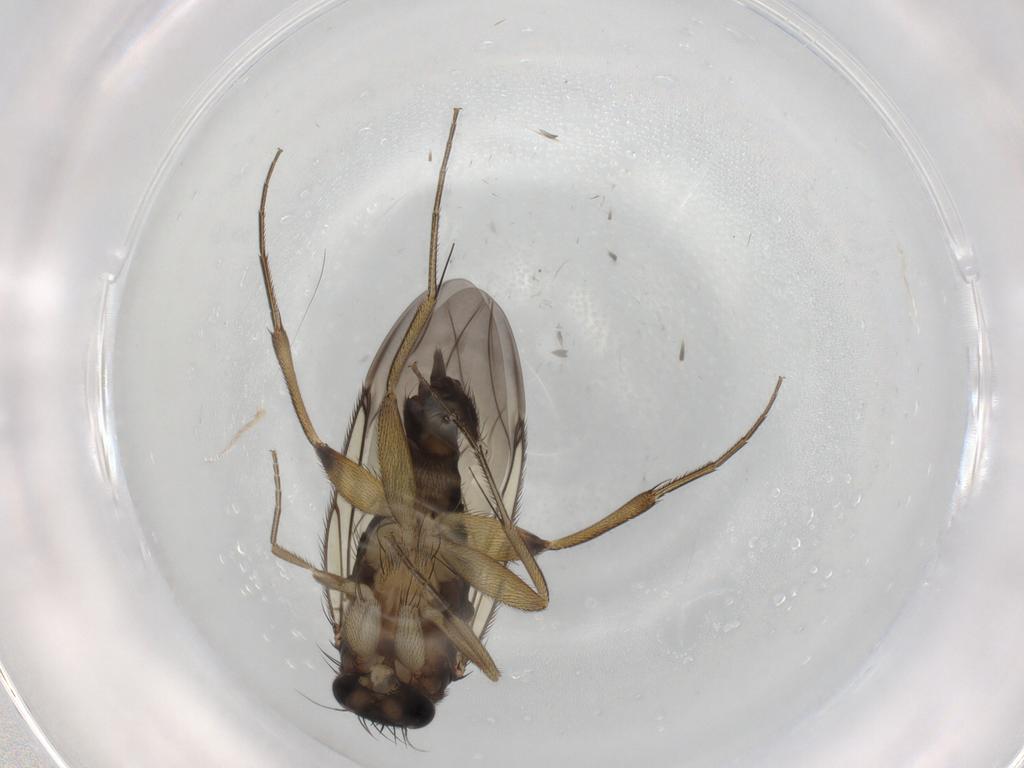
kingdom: Animalia
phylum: Arthropoda
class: Insecta
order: Diptera
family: Phoridae
